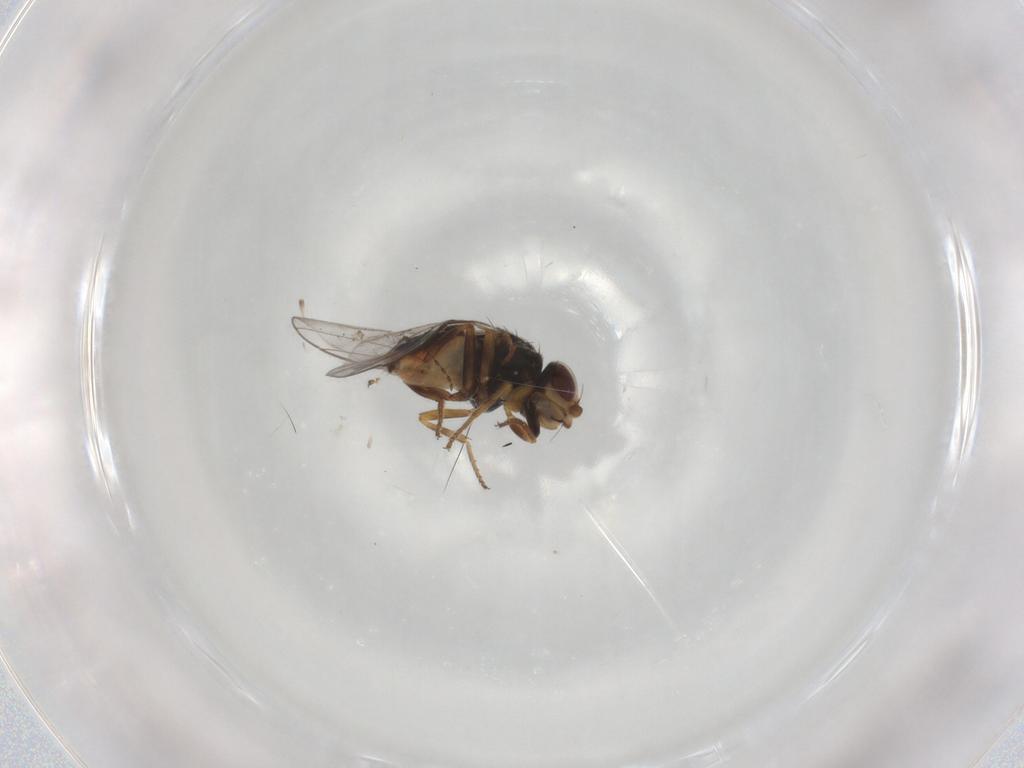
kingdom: Animalia
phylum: Arthropoda
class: Insecta
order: Diptera
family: Chloropidae
